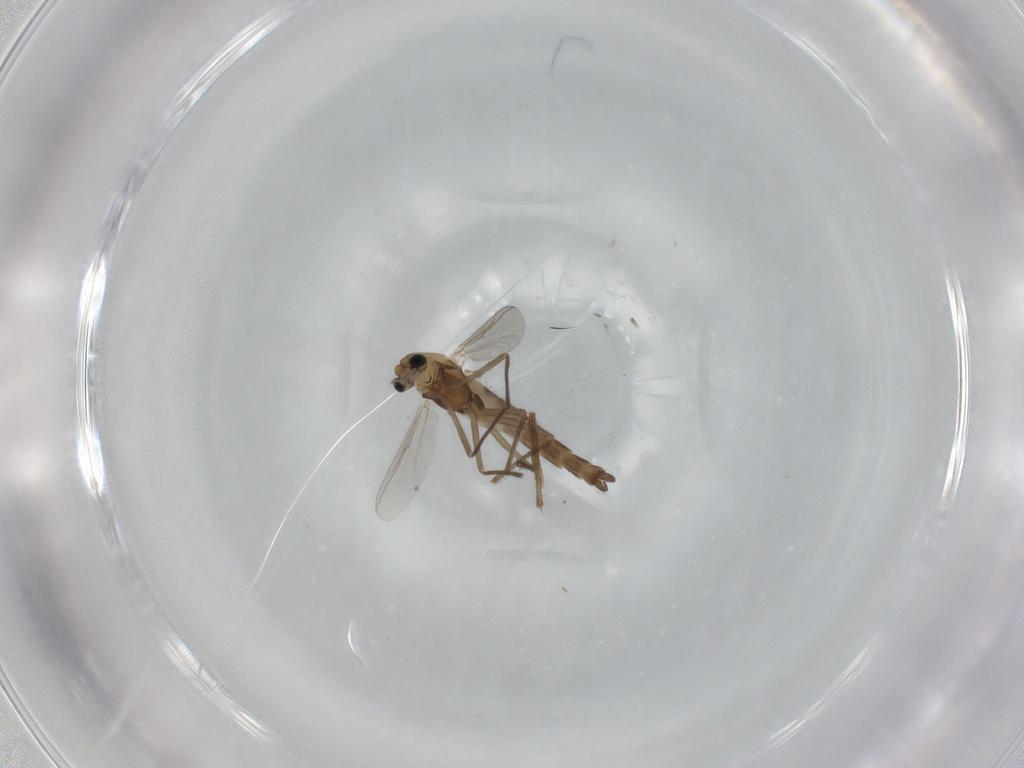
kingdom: Animalia
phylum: Arthropoda
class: Insecta
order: Diptera
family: Chironomidae
